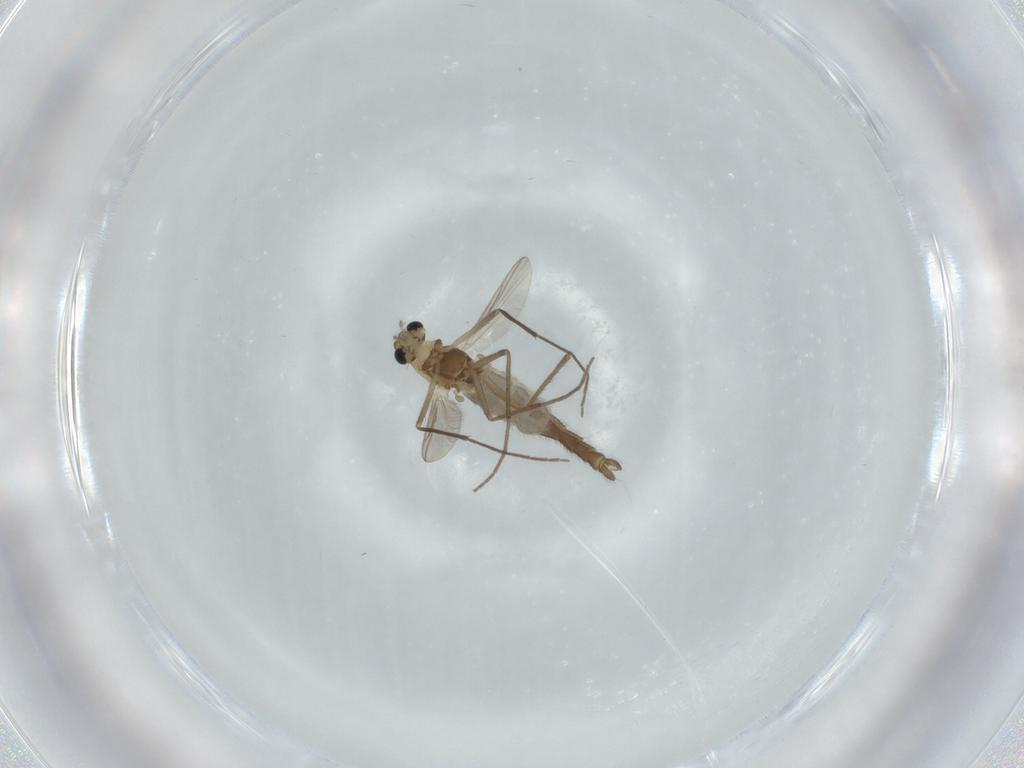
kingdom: Animalia
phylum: Arthropoda
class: Insecta
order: Diptera
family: Chironomidae
